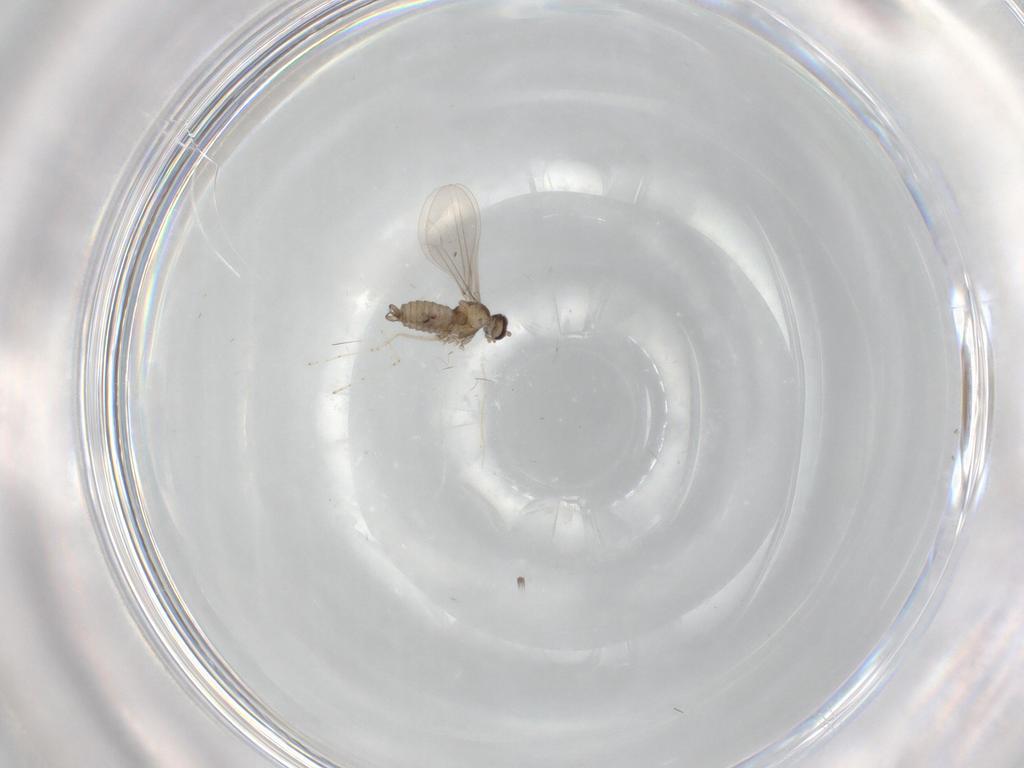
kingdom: Animalia
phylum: Arthropoda
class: Insecta
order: Diptera
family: Cecidomyiidae
